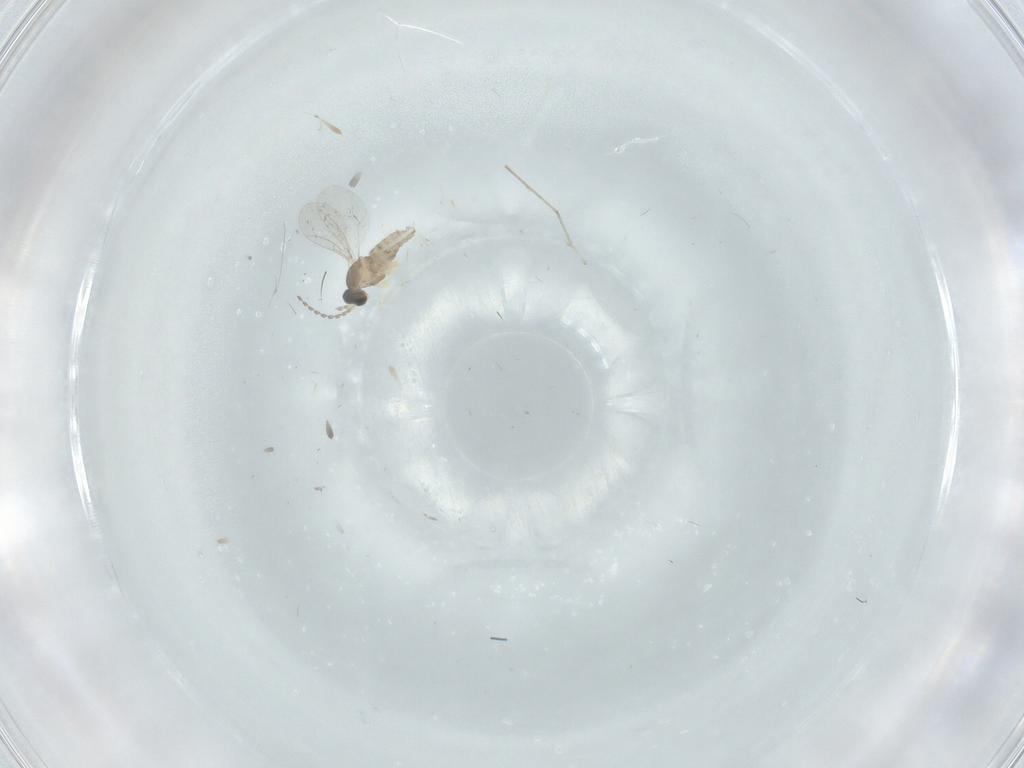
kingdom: Animalia
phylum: Arthropoda
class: Insecta
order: Diptera
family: Cecidomyiidae
